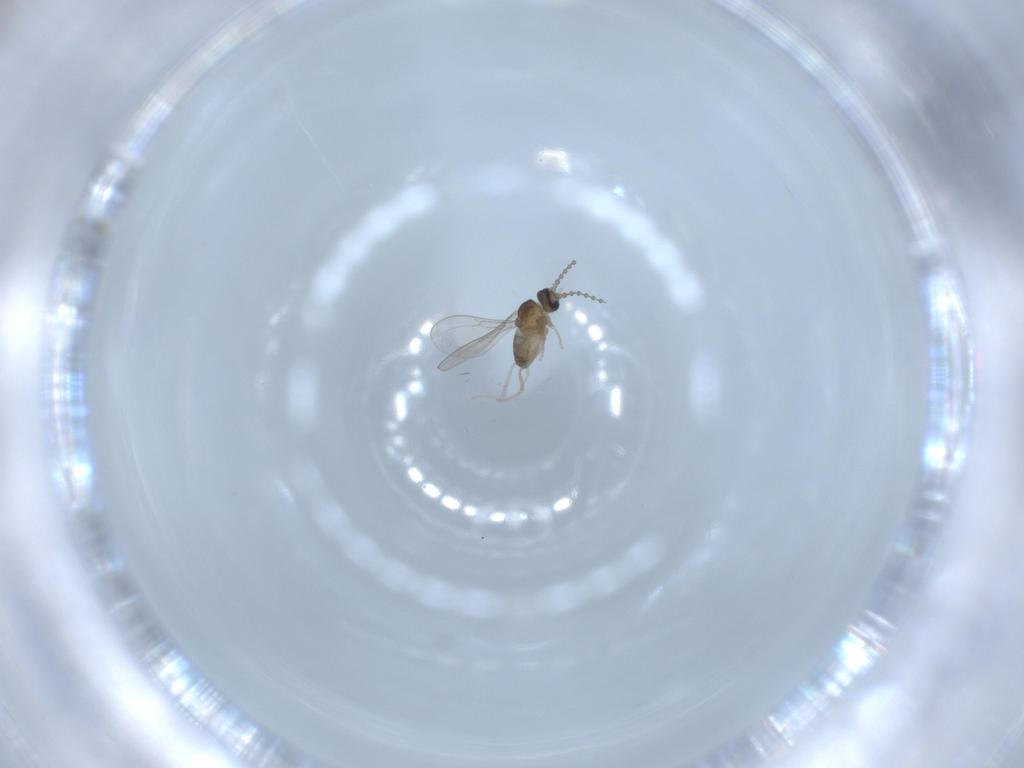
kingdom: Animalia
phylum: Arthropoda
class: Insecta
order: Diptera
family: Cecidomyiidae
